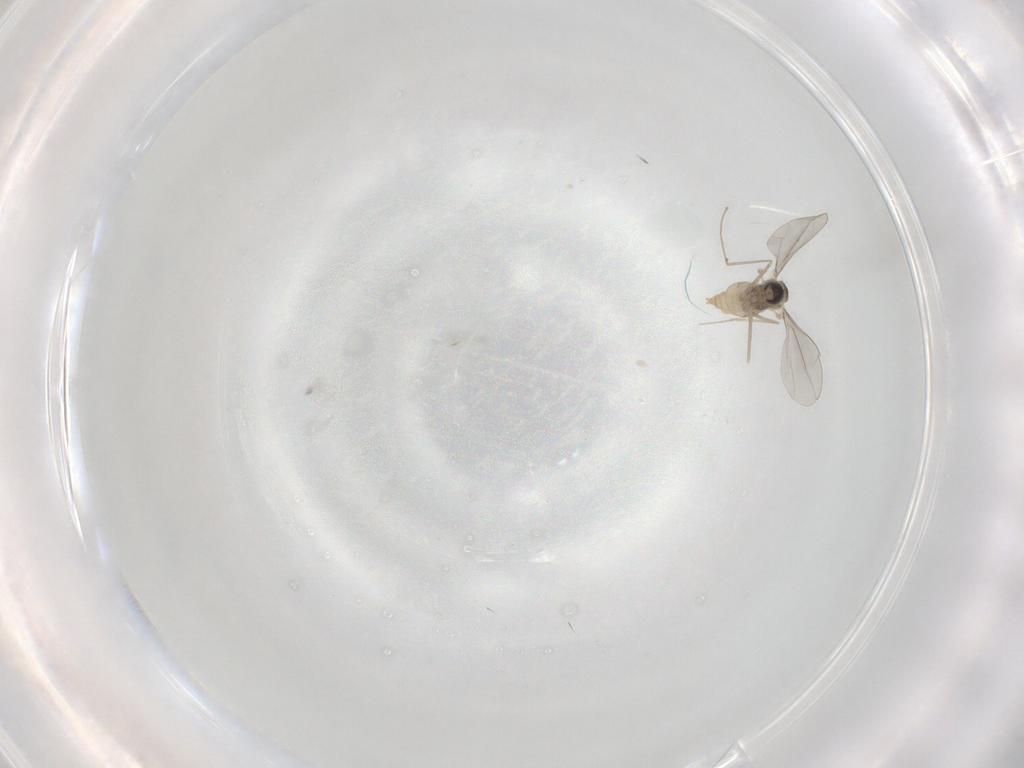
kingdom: Animalia
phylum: Arthropoda
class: Insecta
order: Diptera
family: Cecidomyiidae
